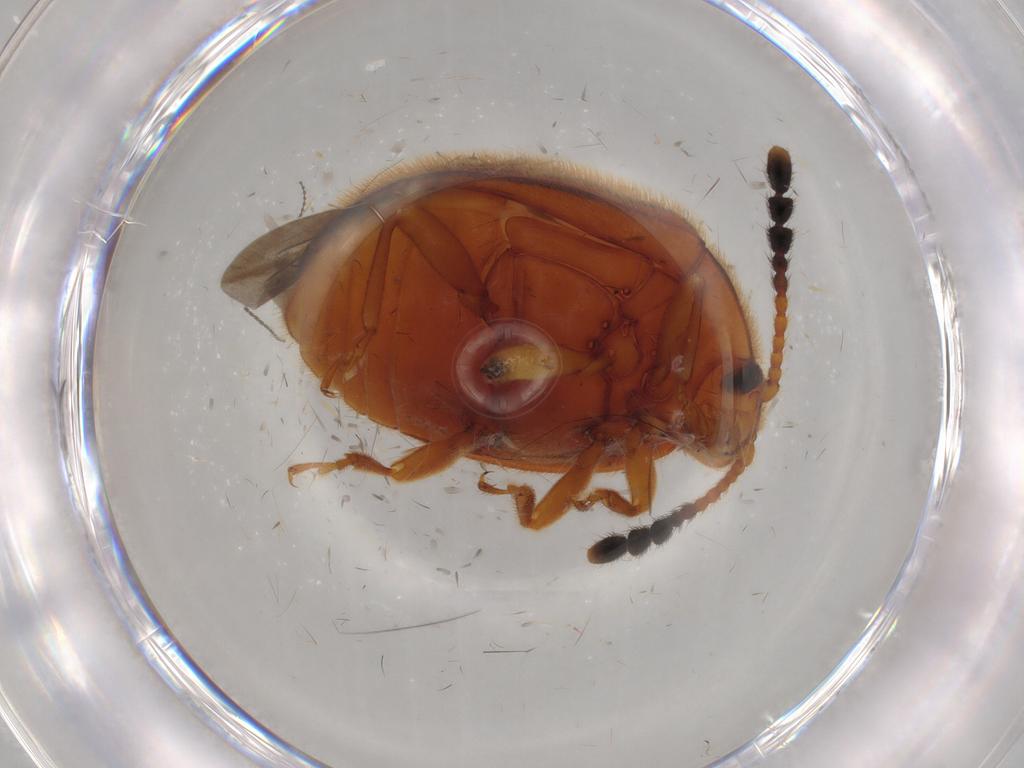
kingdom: Animalia
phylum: Arthropoda
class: Insecta
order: Coleoptera
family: Endomychidae
